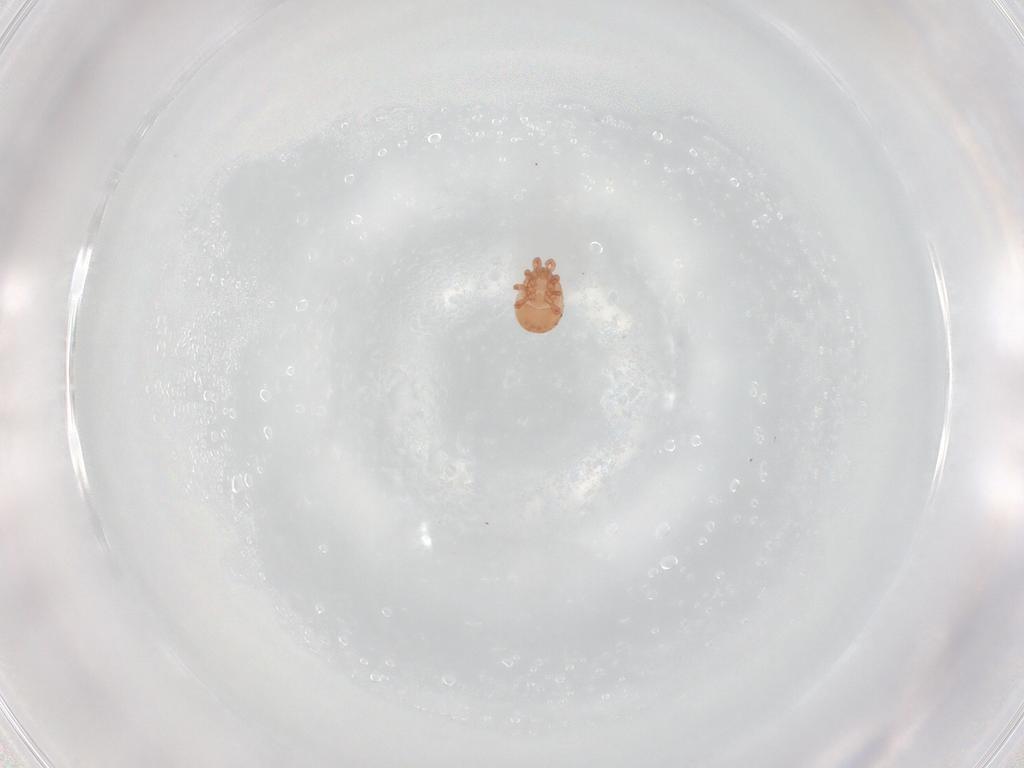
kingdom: Animalia
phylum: Arthropoda
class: Arachnida
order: Mesostigmata
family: Zerconidae
